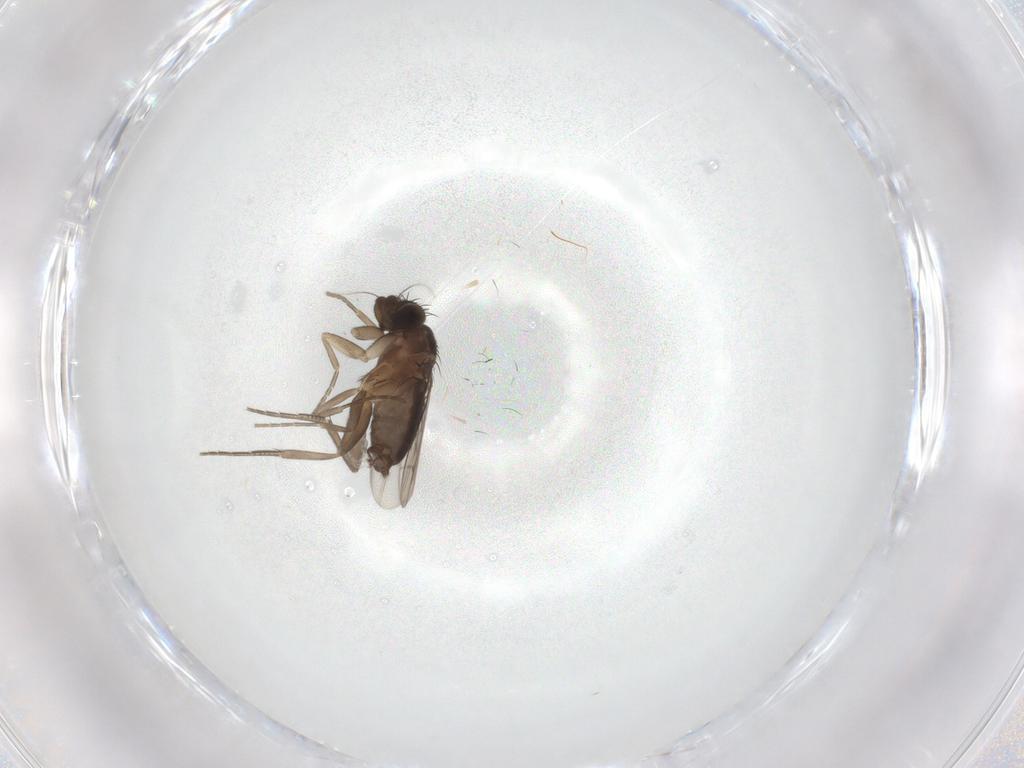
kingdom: Animalia
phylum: Arthropoda
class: Insecta
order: Diptera
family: Phoridae
